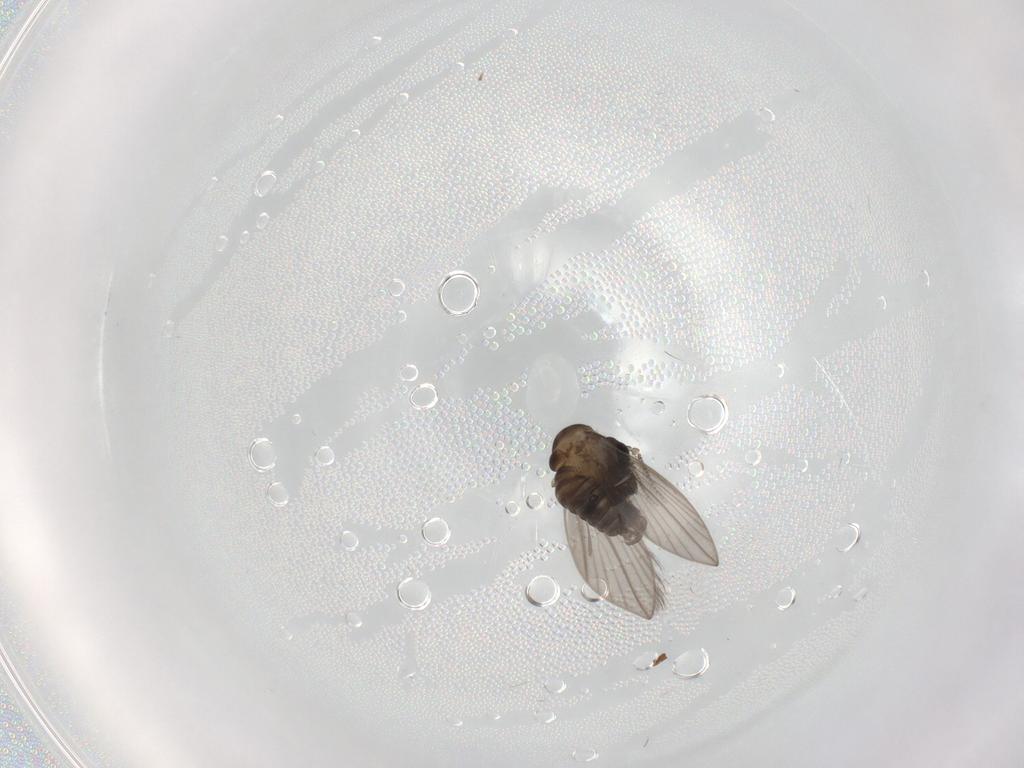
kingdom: Animalia
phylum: Arthropoda
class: Insecta
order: Diptera
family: Psychodidae
